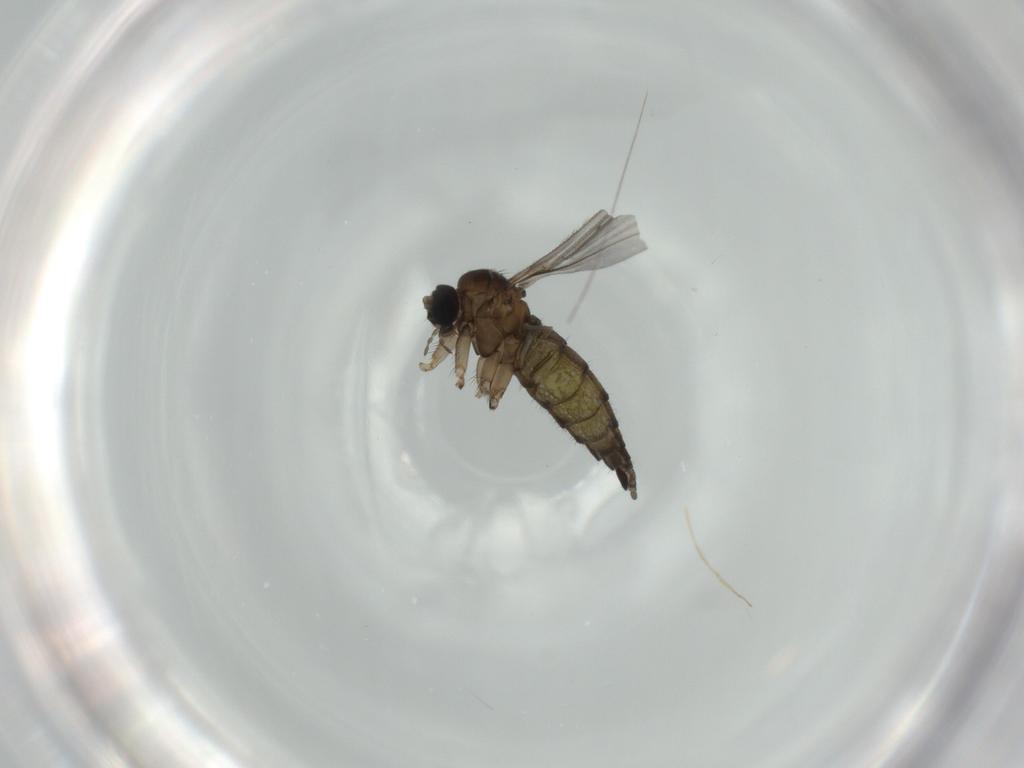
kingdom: Animalia
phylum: Arthropoda
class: Insecta
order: Diptera
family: Sciaridae
